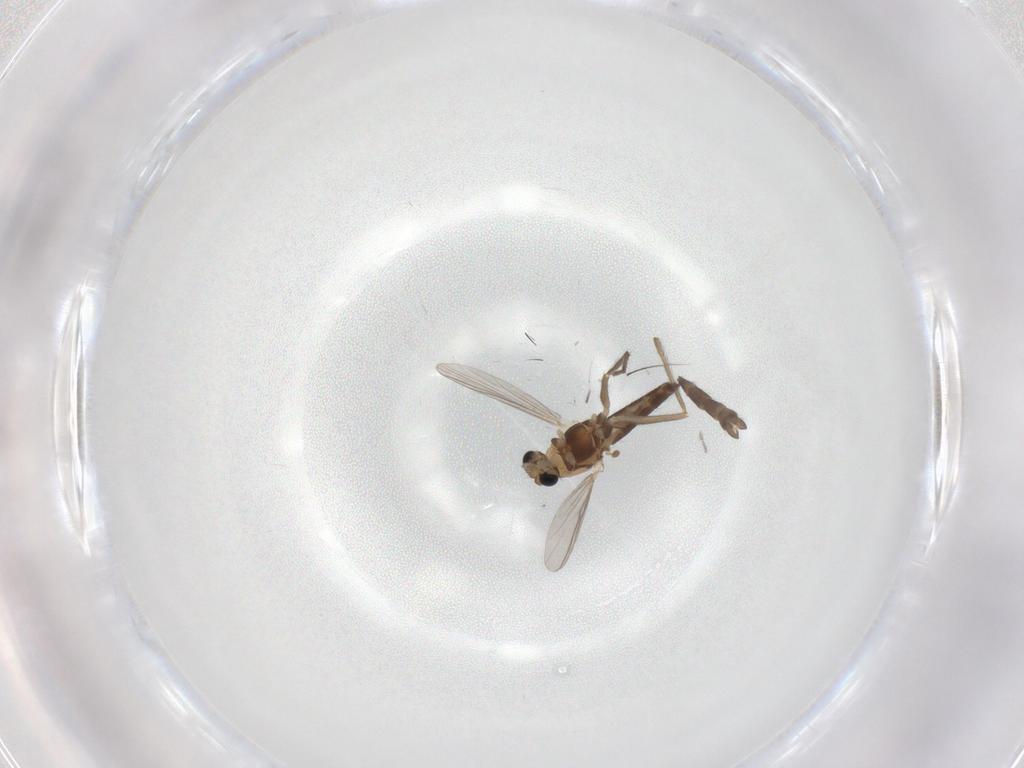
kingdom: Animalia
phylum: Arthropoda
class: Insecta
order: Diptera
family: Chironomidae
